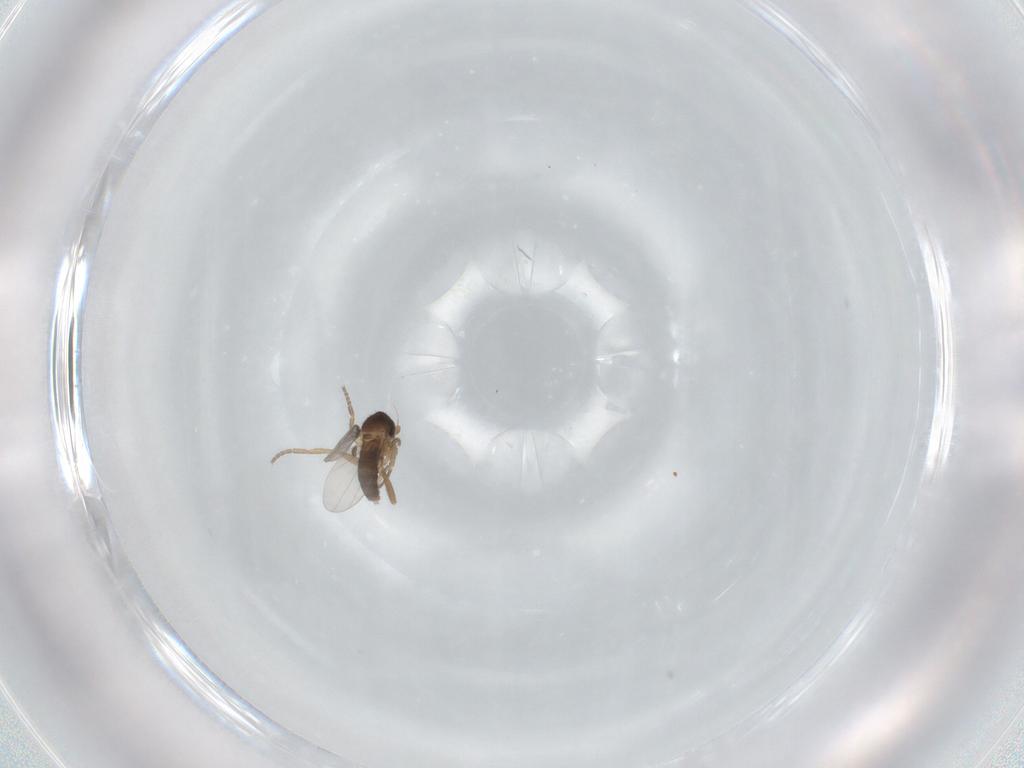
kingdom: Animalia
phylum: Arthropoda
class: Insecta
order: Diptera
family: Phoridae
